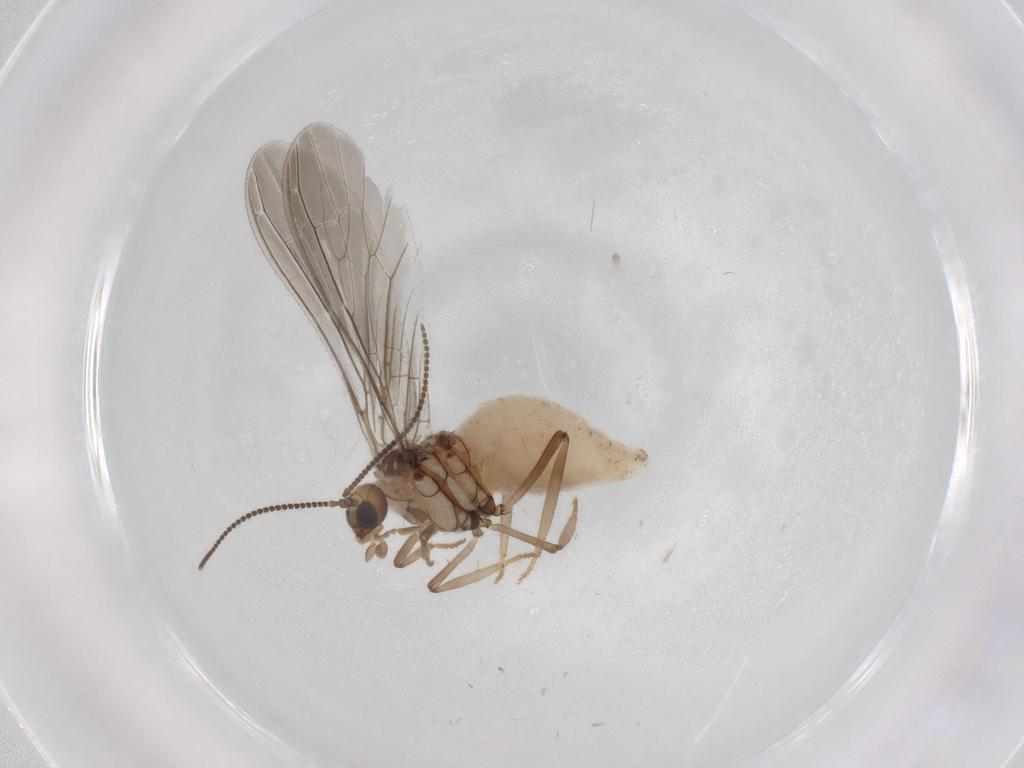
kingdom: Animalia
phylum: Arthropoda
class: Insecta
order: Neuroptera
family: Coniopterygidae
